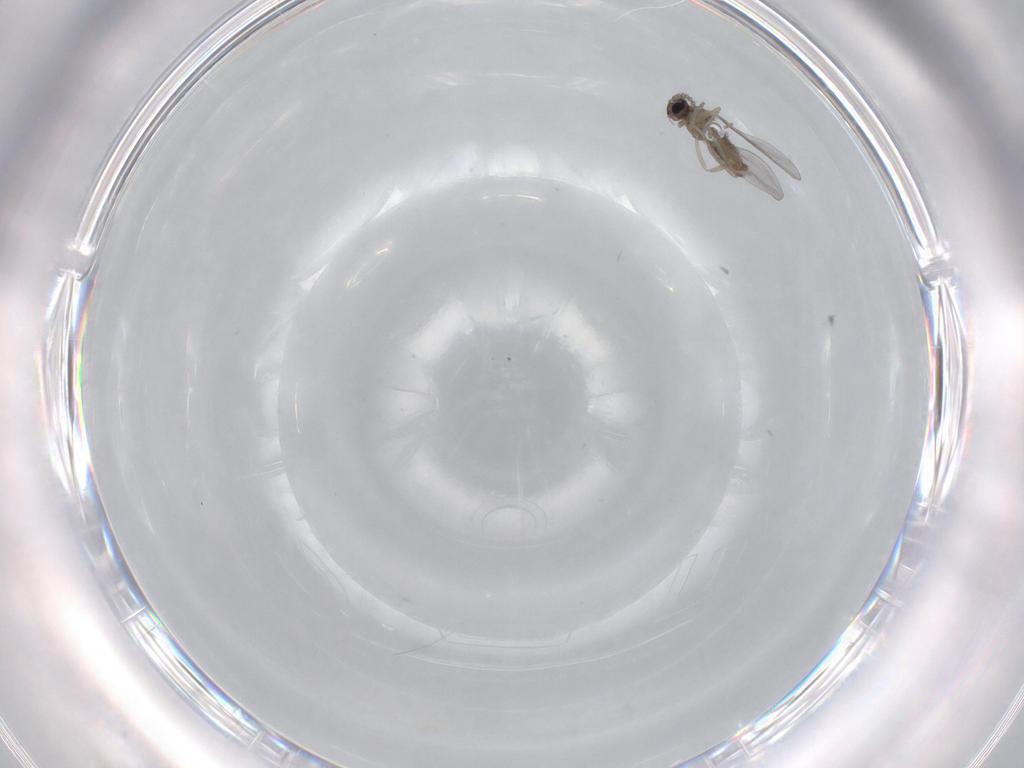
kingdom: Animalia
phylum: Arthropoda
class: Insecta
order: Diptera
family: Cecidomyiidae
